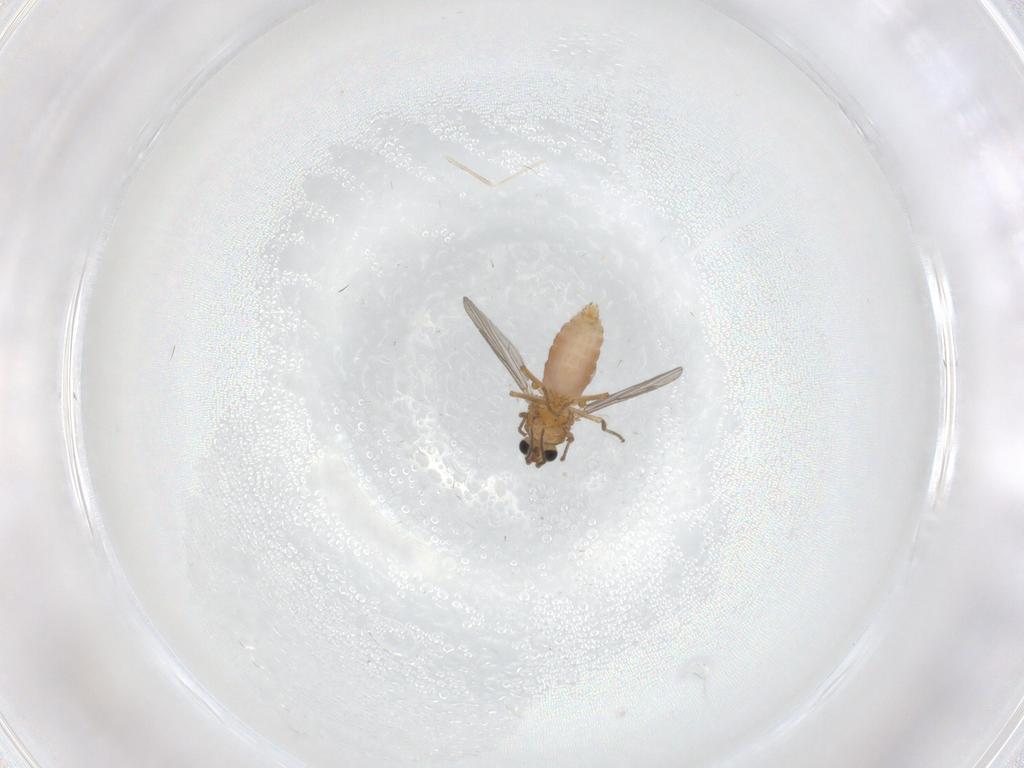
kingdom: Animalia
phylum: Arthropoda
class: Insecta
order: Diptera
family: Ceratopogonidae
